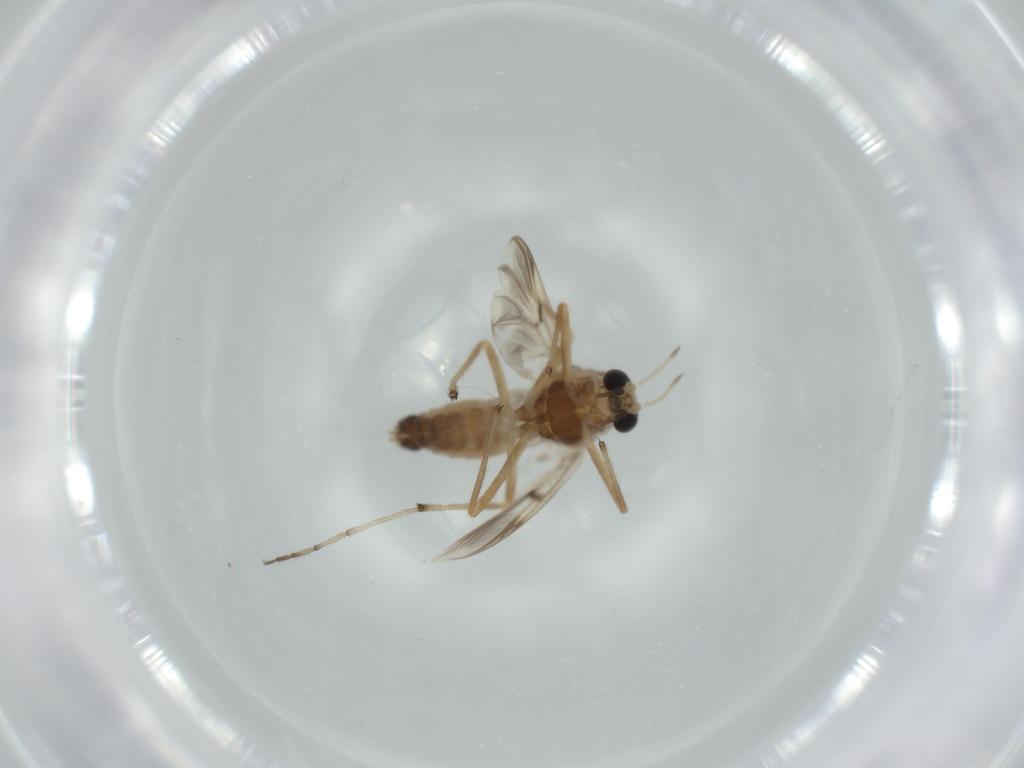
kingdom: Animalia
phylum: Arthropoda
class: Insecta
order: Diptera
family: Chironomidae
